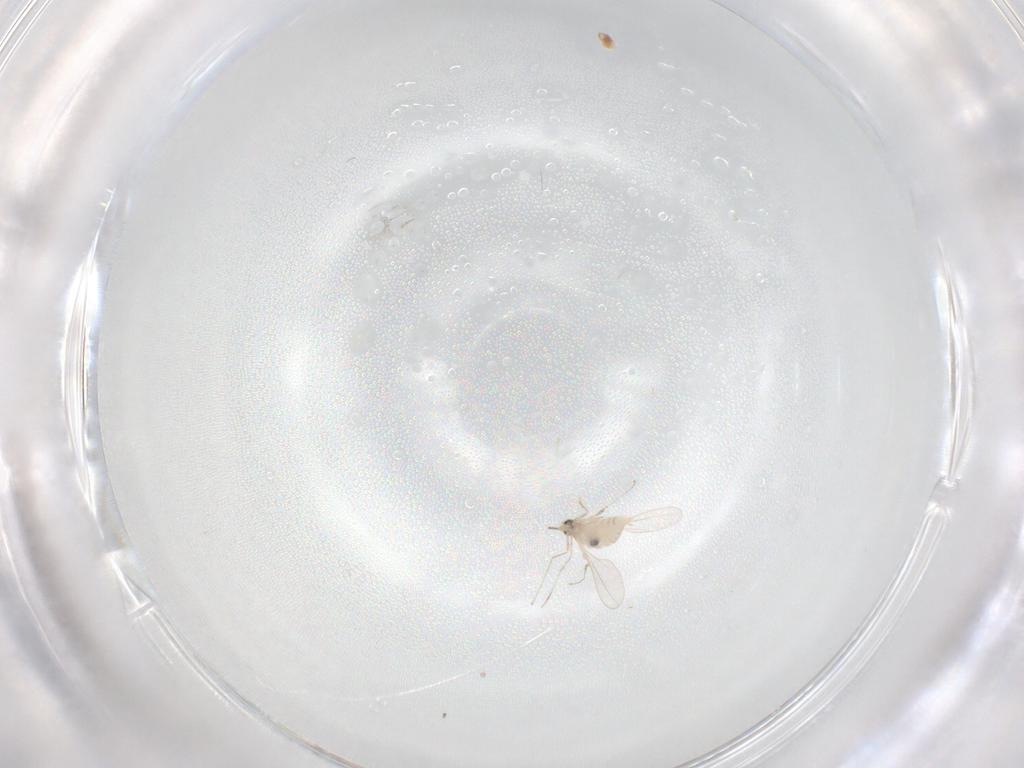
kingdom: Animalia
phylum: Arthropoda
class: Insecta
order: Diptera
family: Cecidomyiidae
